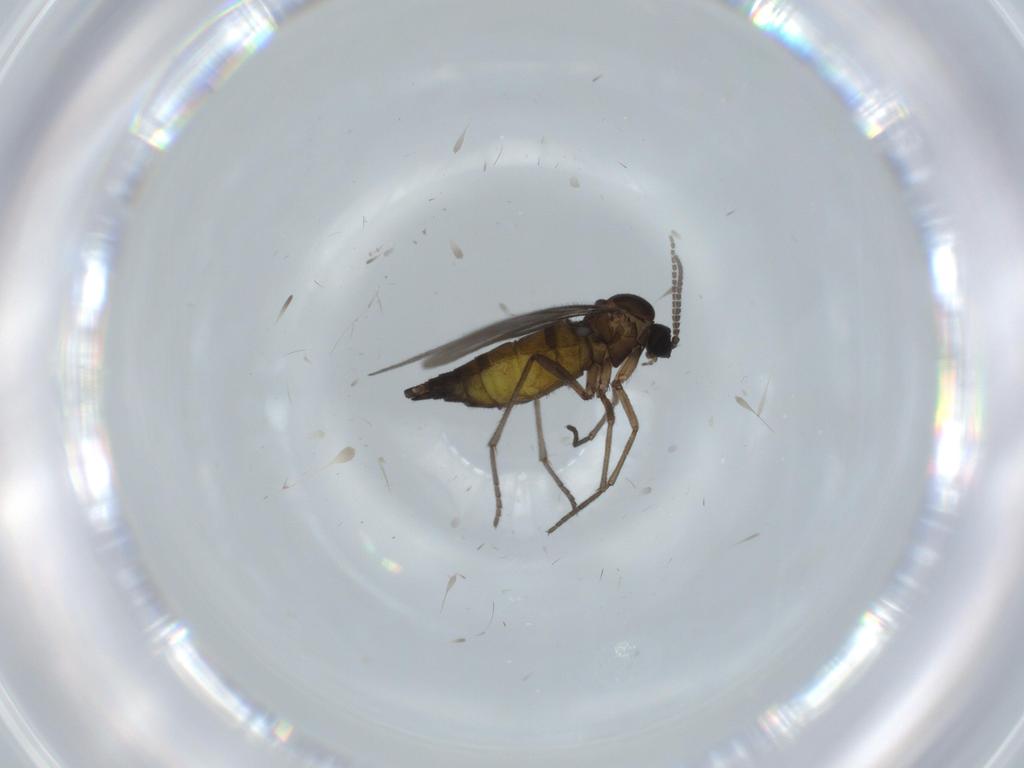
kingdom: Animalia
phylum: Arthropoda
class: Insecta
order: Diptera
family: Sciaridae
